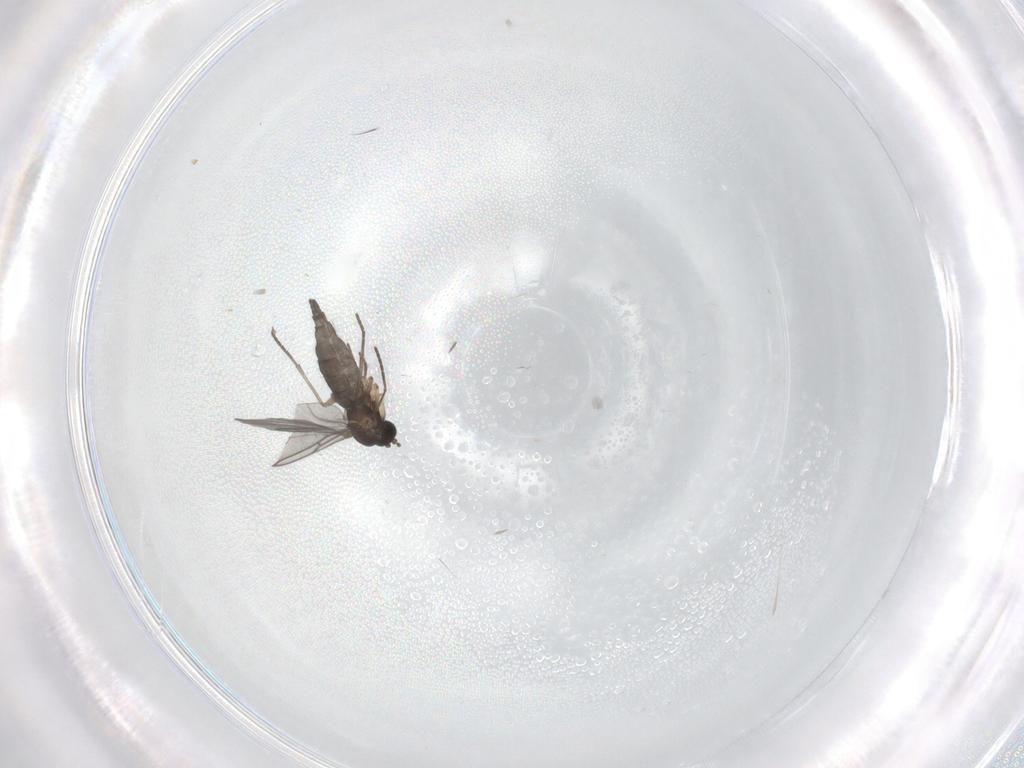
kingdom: Animalia
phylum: Arthropoda
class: Insecta
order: Diptera
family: Sciaridae
